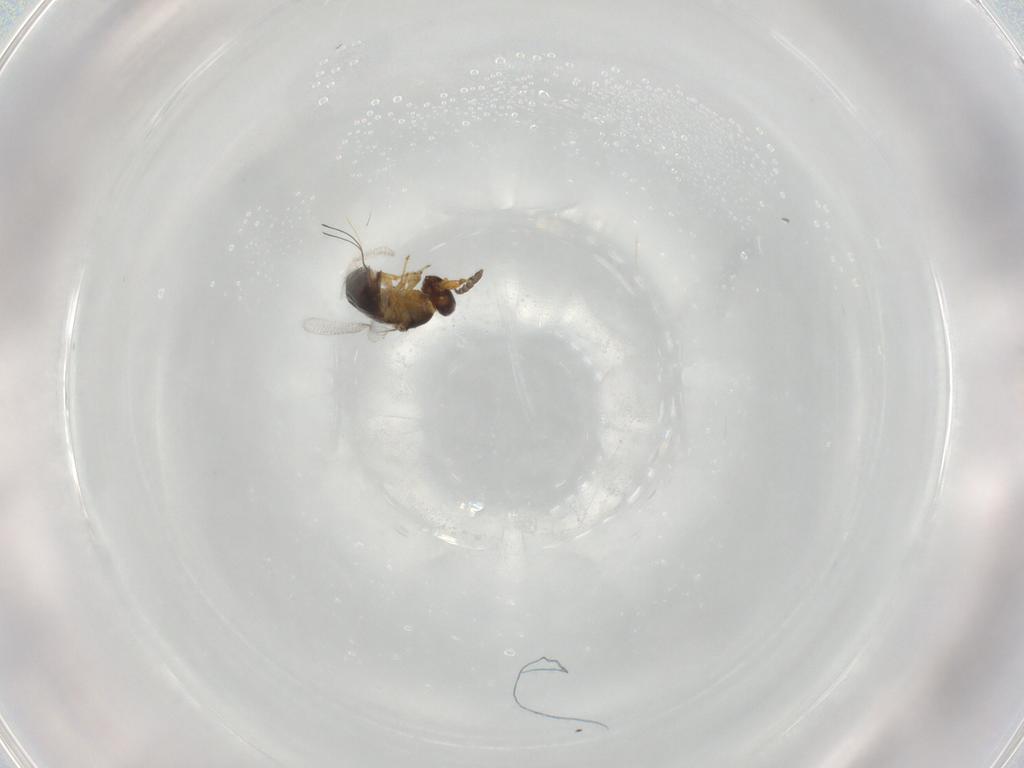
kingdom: Animalia
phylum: Arthropoda
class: Insecta
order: Hymenoptera
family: Agaonidae
